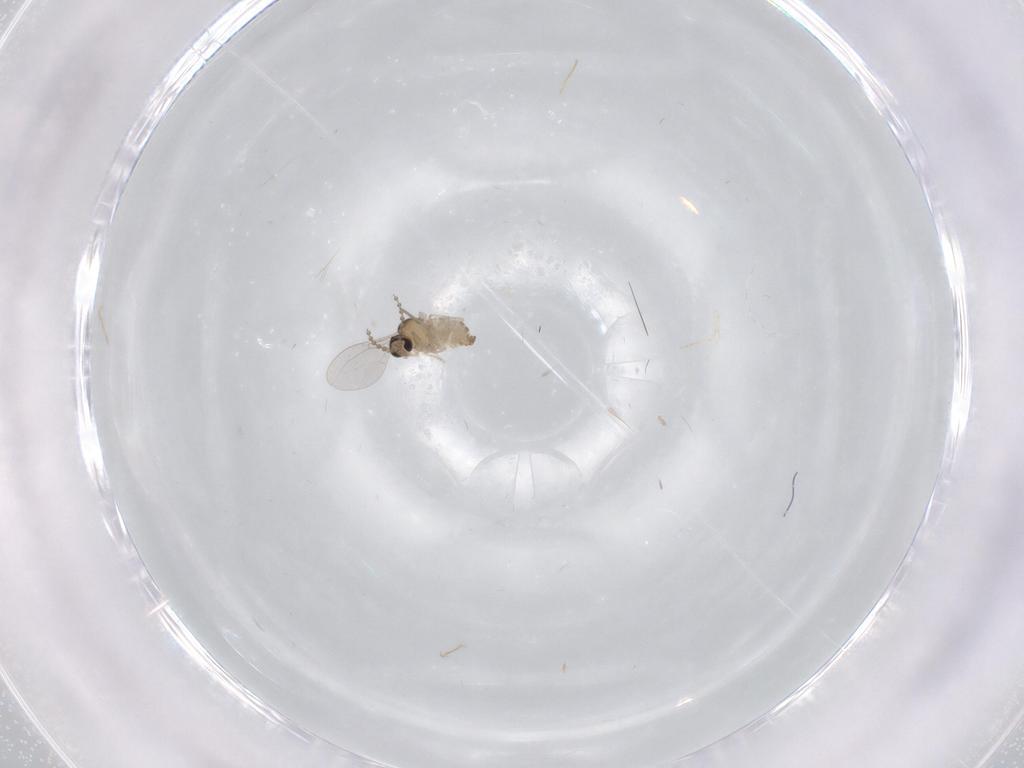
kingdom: Animalia
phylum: Arthropoda
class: Insecta
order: Diptera
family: Cecidomyiidae
